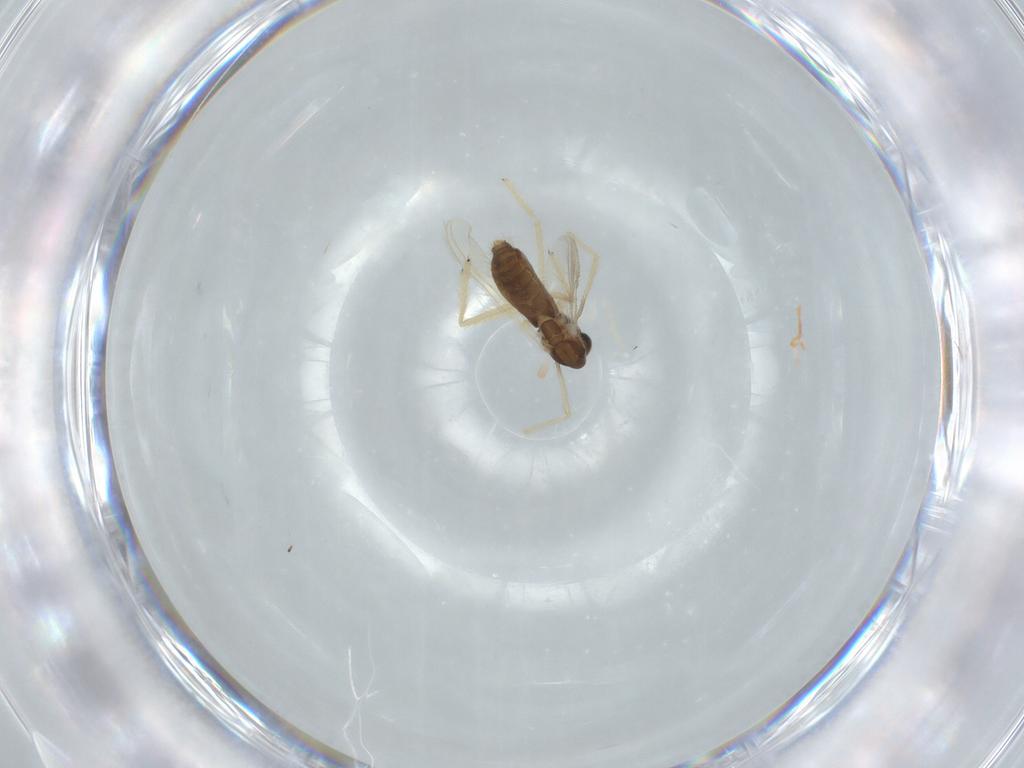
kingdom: Animalia
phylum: Arthropoda
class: Insecta
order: Diptera
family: Chironomidae
